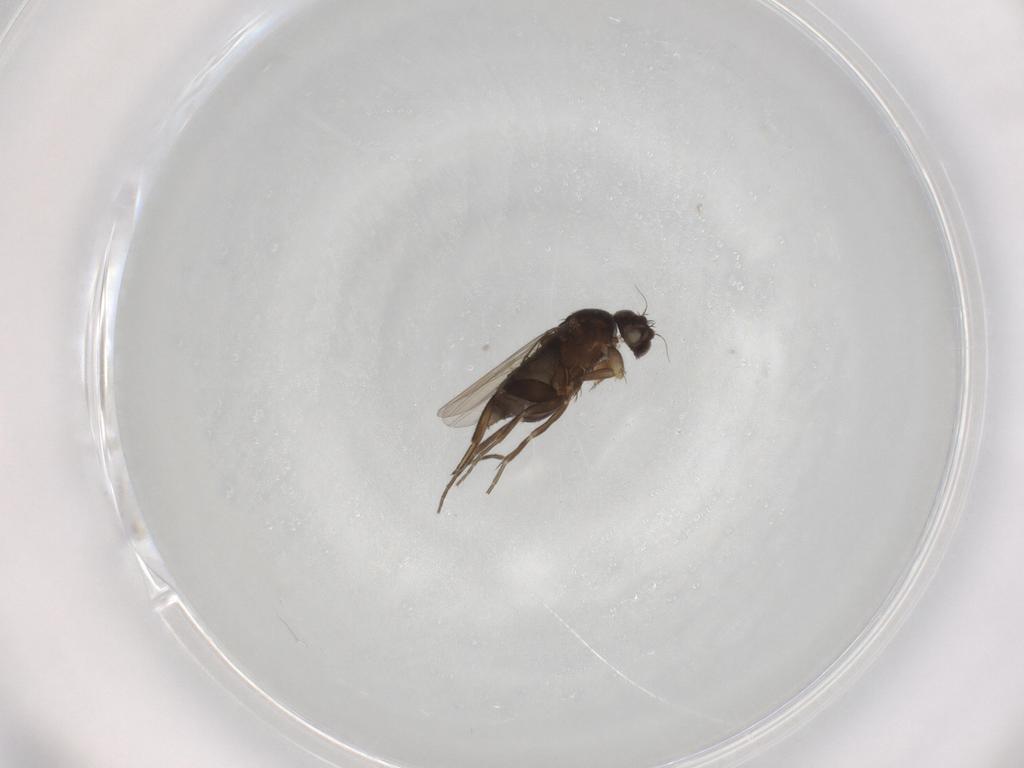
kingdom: Animalia
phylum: Arthropoda
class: Insecta
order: Diptera
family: Phoridae
